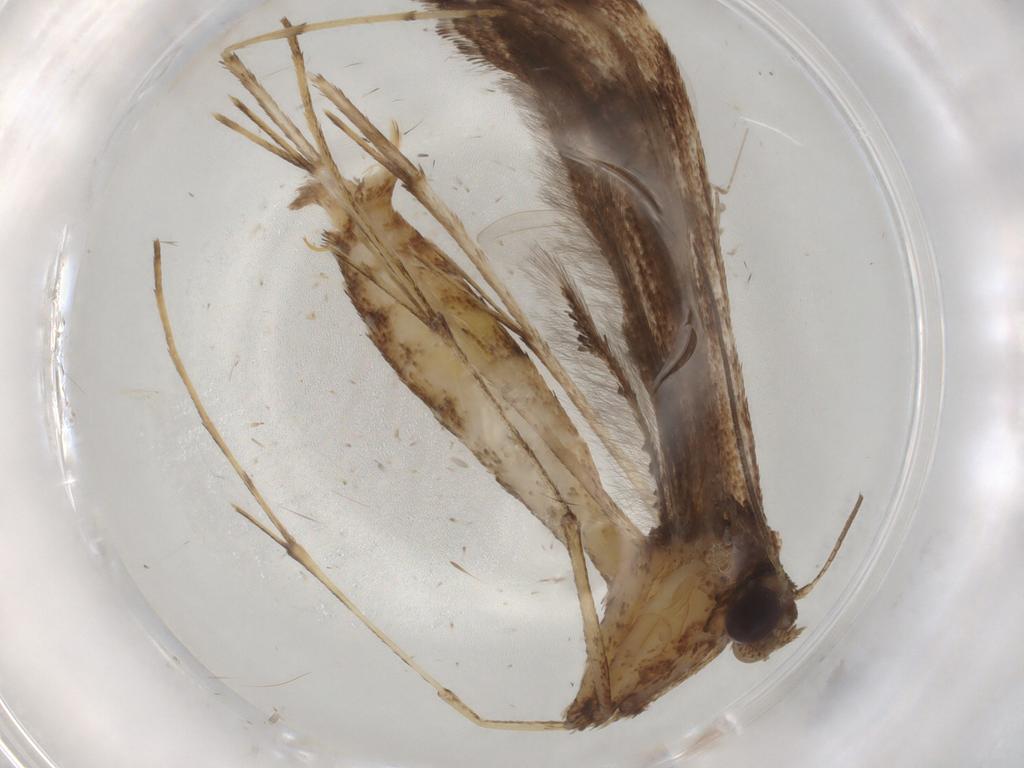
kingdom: Animalia
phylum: Arthropoda
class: Insecta
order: Lepidoptera
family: Pterophoridae
